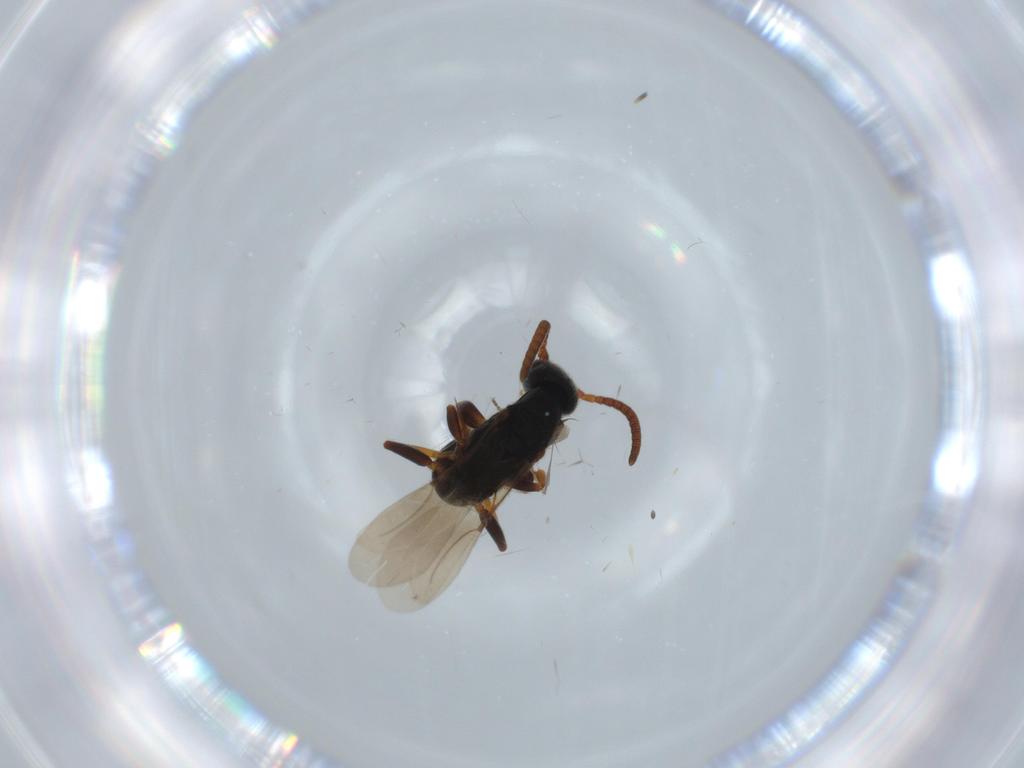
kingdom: Animalia
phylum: Arthropoda
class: Insecta
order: Hymenoptera
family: Bethylidae
